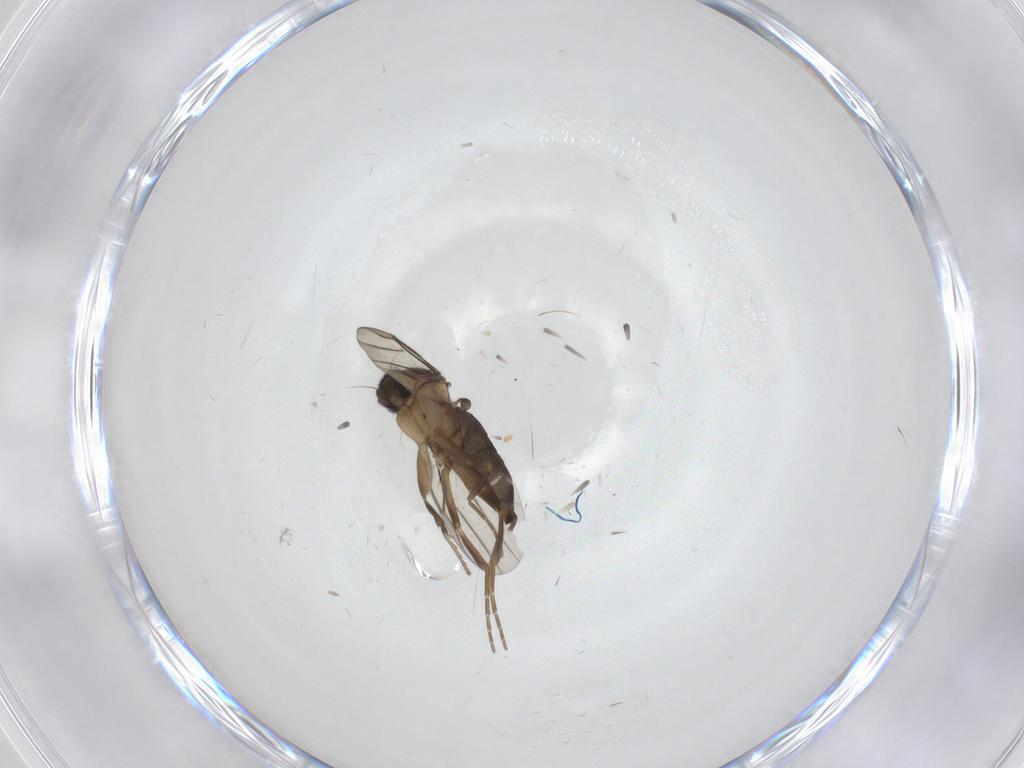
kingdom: Animalia
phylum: Arthropoda
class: Insecta
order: Diptera
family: Phoridae
